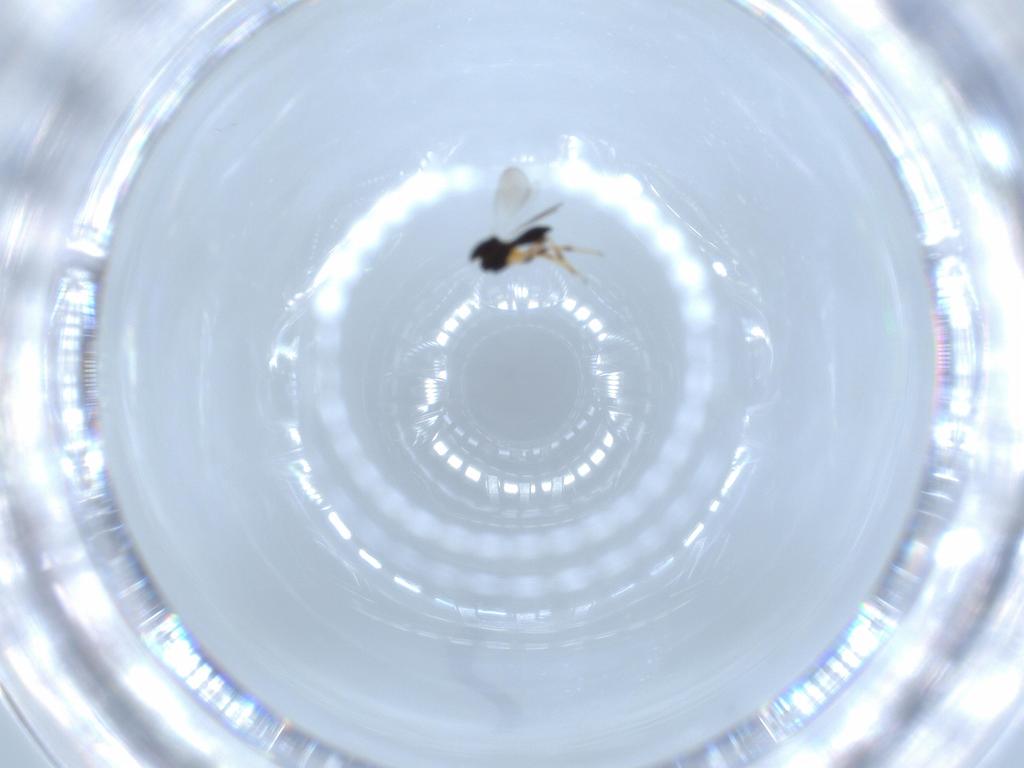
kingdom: Animalia
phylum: Arthropoda
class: Insecta
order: Hymenoptera
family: Platygastridae
